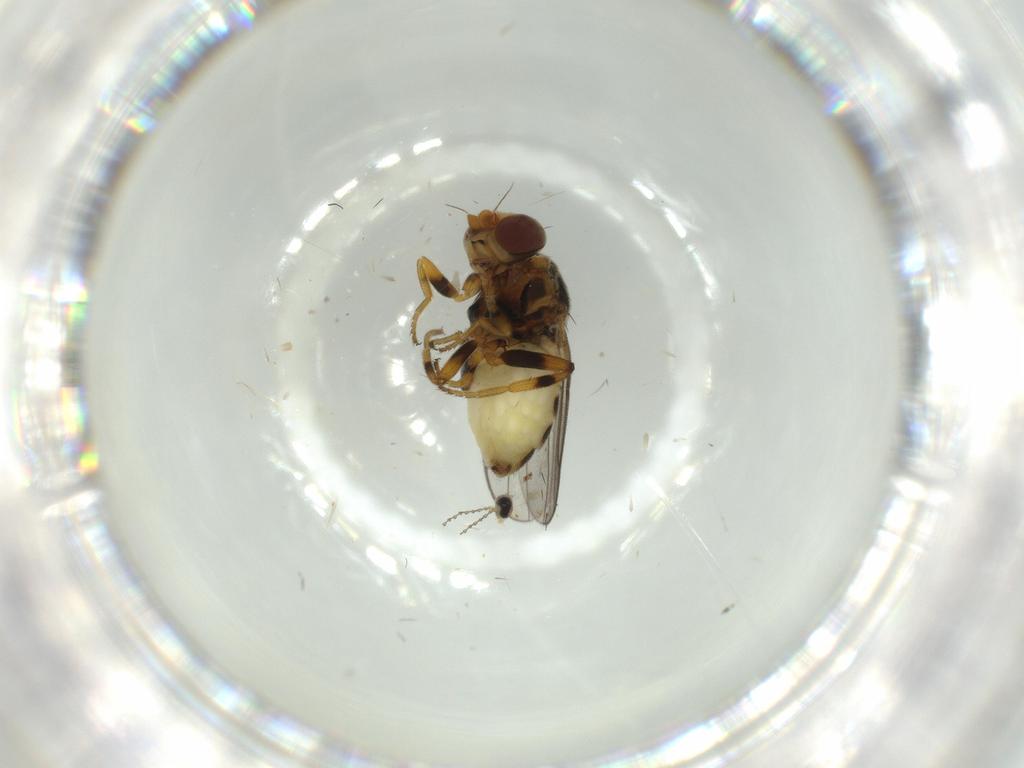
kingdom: Animalia
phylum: Arthropoda
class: Insecta
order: Diptera
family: Chloropidae
